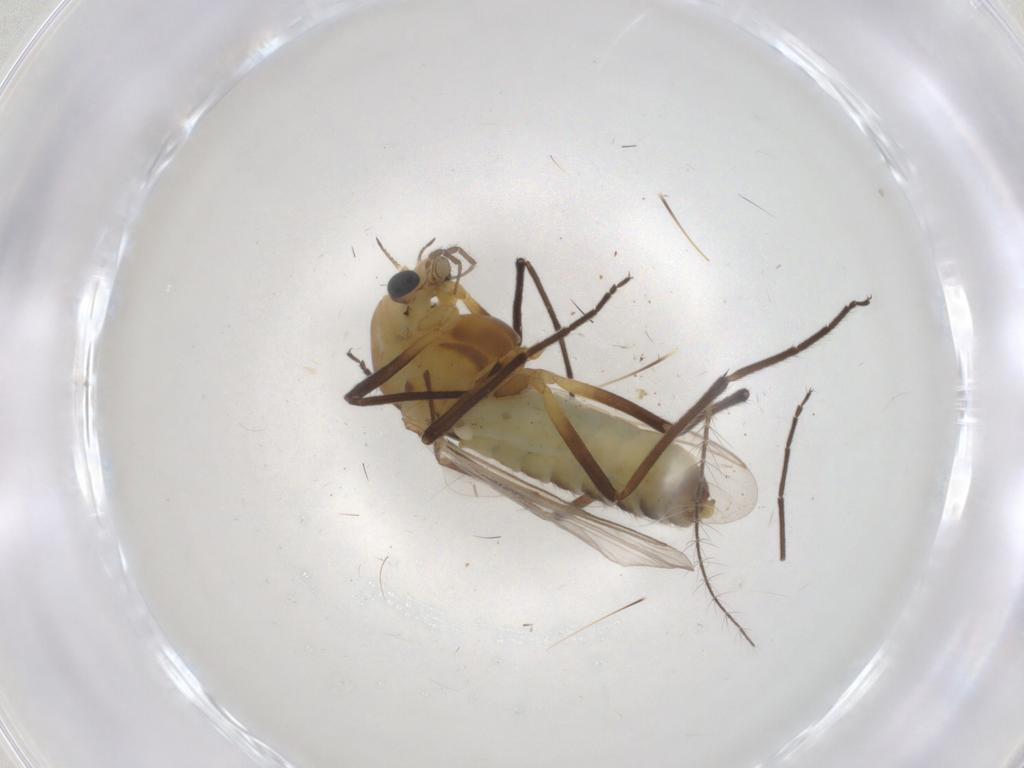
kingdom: Animalia
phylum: Arthropoda
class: Insecta
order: Diptera
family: Chironomidae
